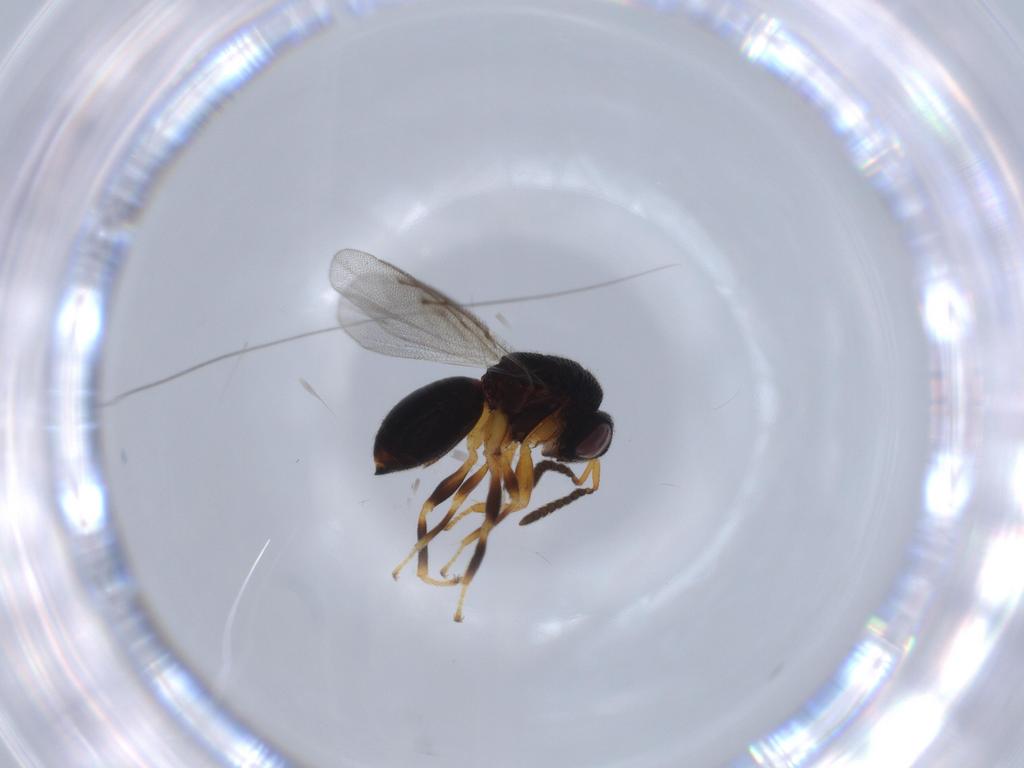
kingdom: Animalia
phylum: Arthropoda
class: Insecta
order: Hymenoptera
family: Eurytomidae
